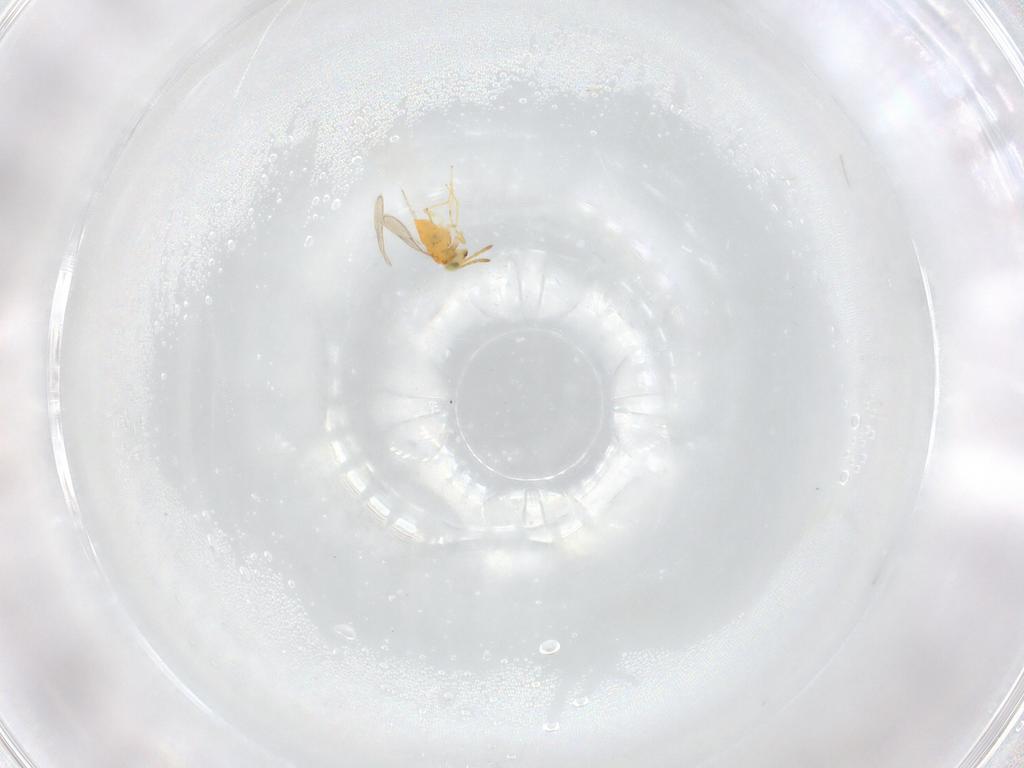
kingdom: Animalia
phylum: Arthropoda
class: Insecta
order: Hymenoptera
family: Aphelinidae
